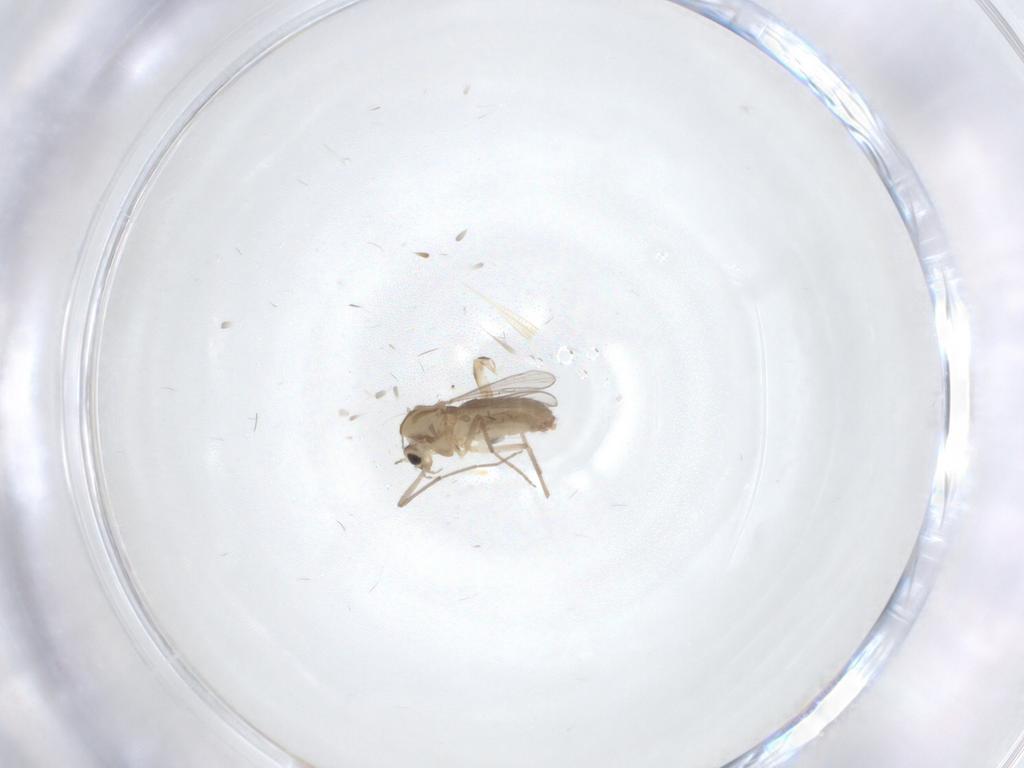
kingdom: Animalia
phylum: Arthropoda
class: Insecta
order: Diptera
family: Chironomidae
